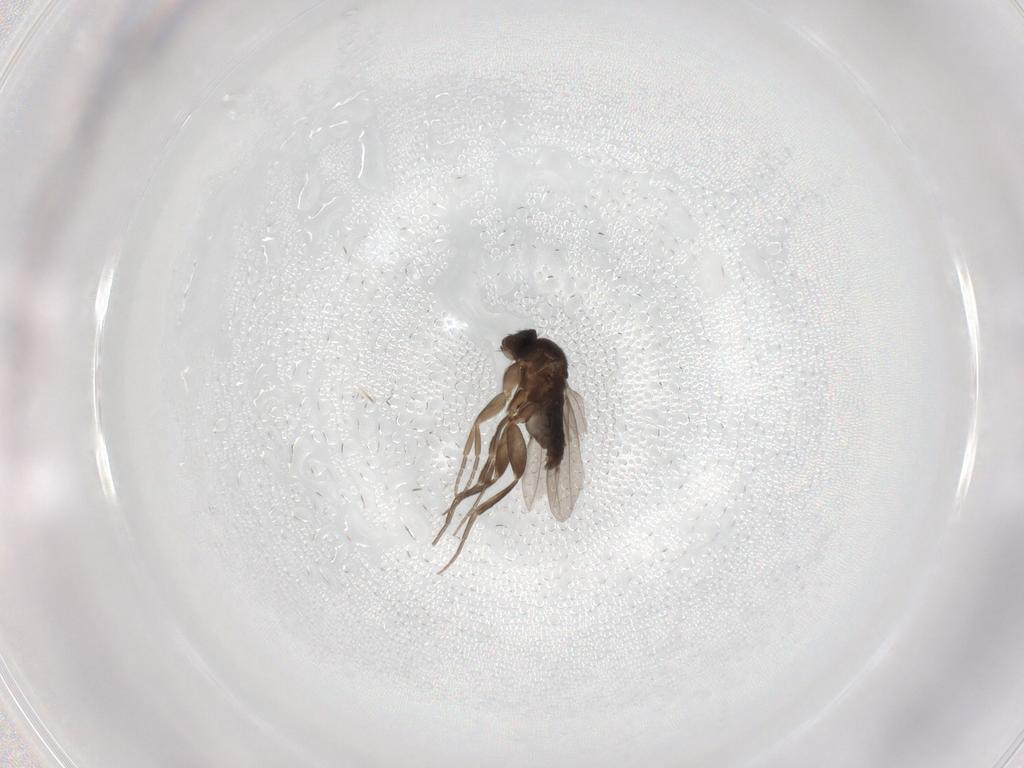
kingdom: Animalia
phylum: Arthropoda
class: Insecta
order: Diptera
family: Phoridae
